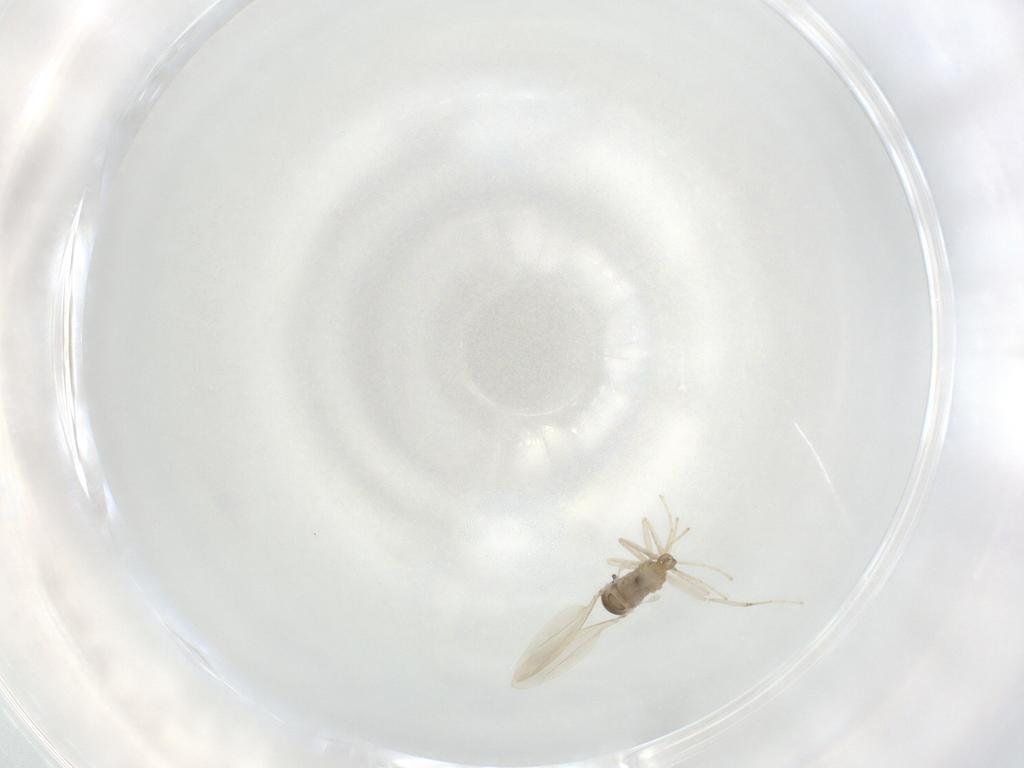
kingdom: Animalia
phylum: Arthropoda
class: Insecta
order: Diptera
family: Cecidomyiidae
